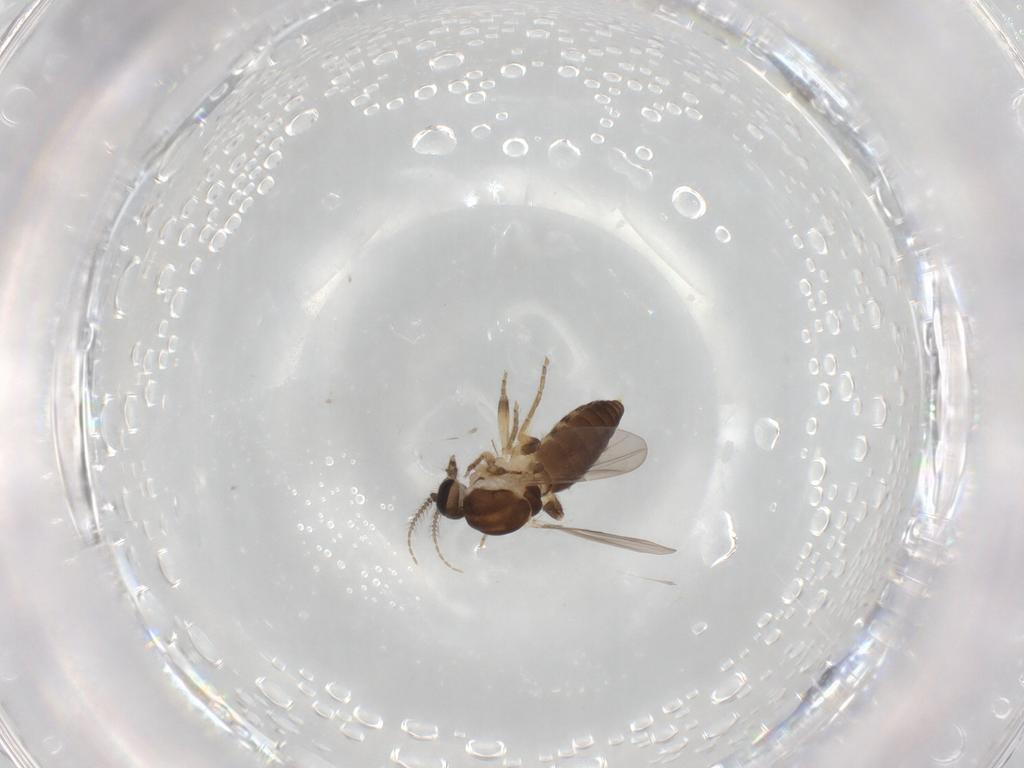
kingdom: Animalia
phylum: Arthropoda
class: Insecta
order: Diptera
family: Ceratopogonidae
